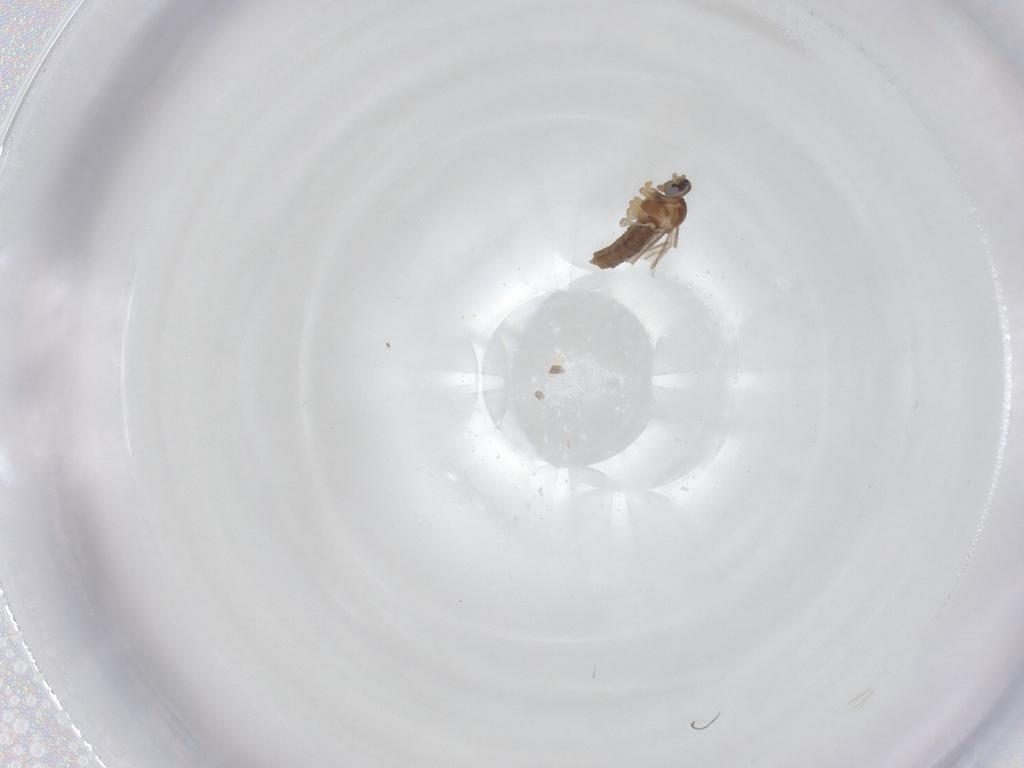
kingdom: Animalia
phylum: Arthropoda
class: Insecta
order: Diptera
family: Cecidomyiidae
